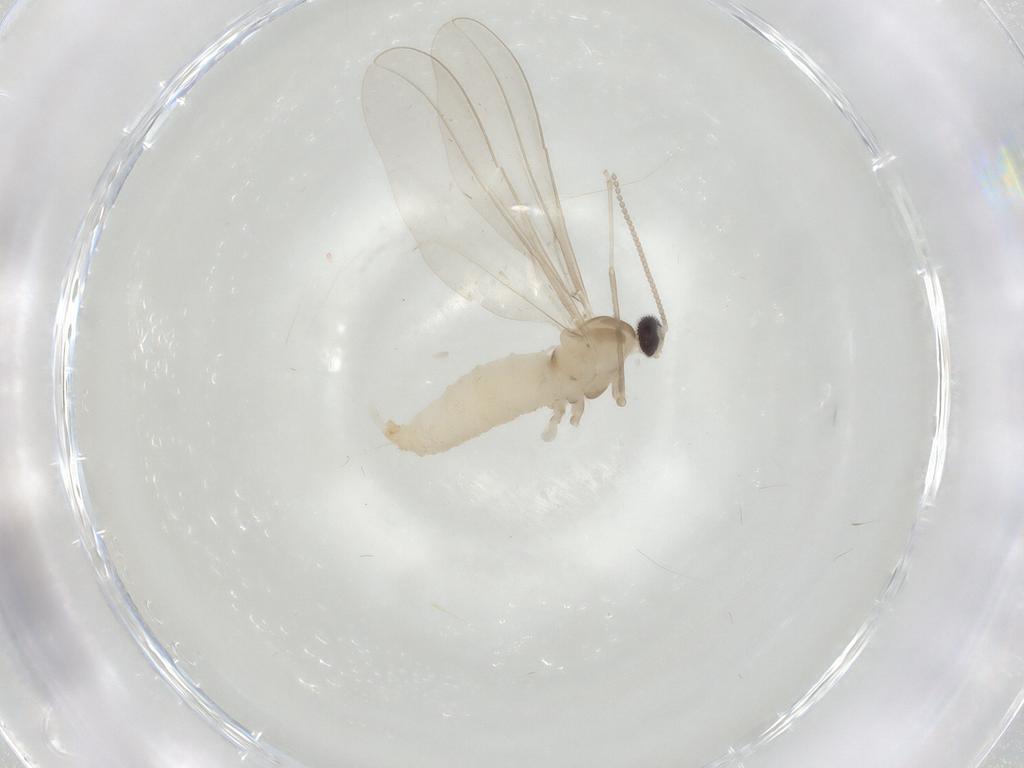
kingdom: Animalia
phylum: Arthropoda
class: Insecta
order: Diptera
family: Cecidomyiidae
